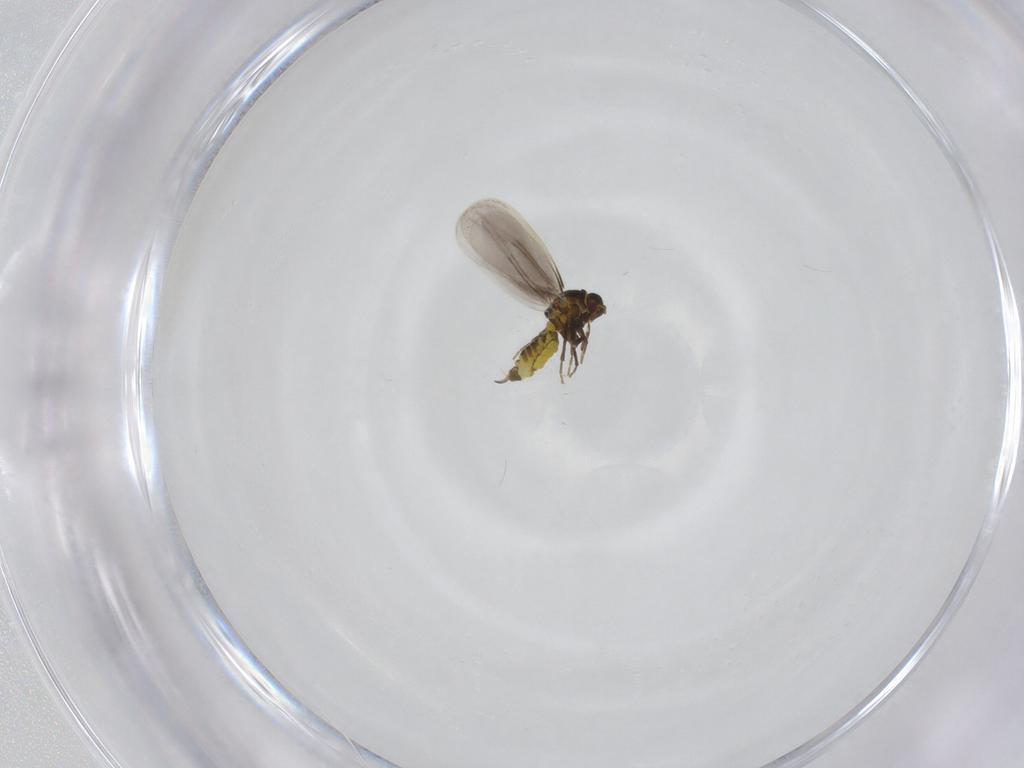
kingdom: Animalia
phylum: Arthropoda
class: Insecta
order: Hemiptera
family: Aleyrodidae
